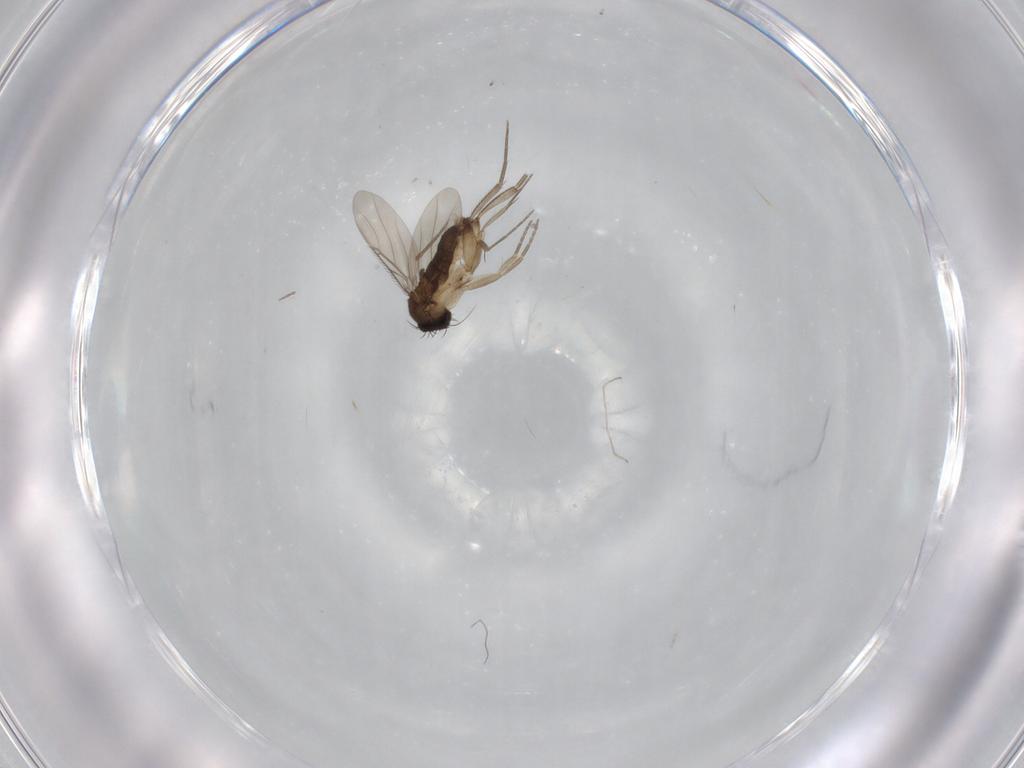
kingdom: Animalia
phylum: Arthropoda
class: Insecta
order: Diptera
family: Phoridae
